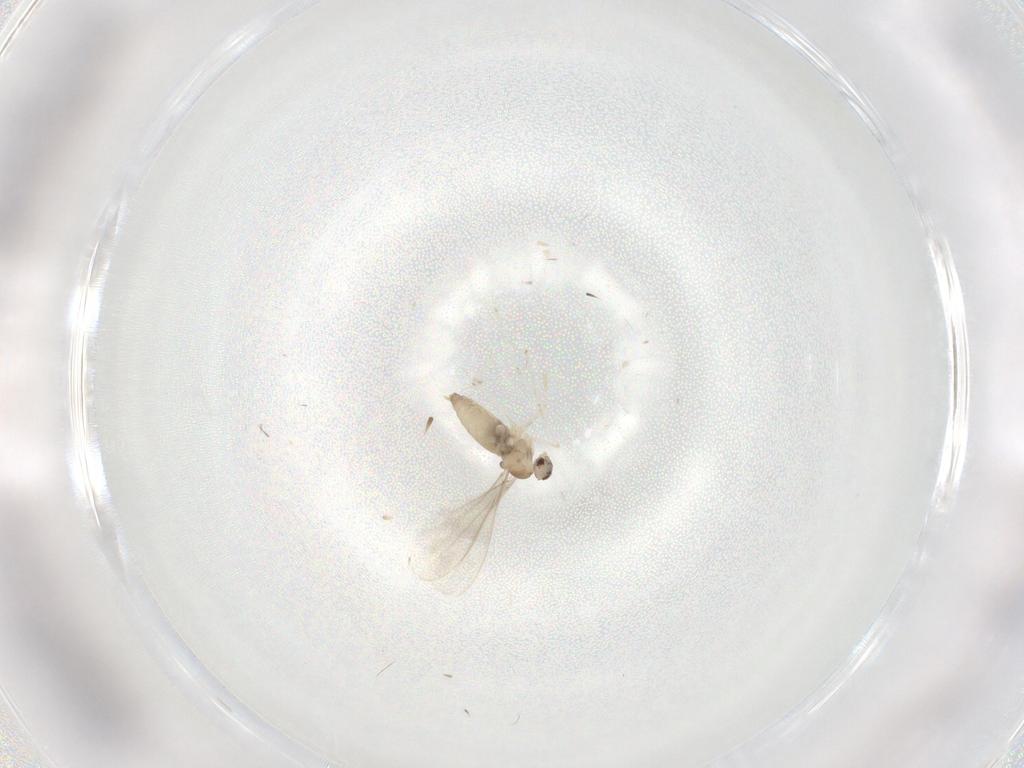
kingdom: Animalia
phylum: Arthropoda
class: Insecta
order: Diptera
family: Cecidomyiidae
